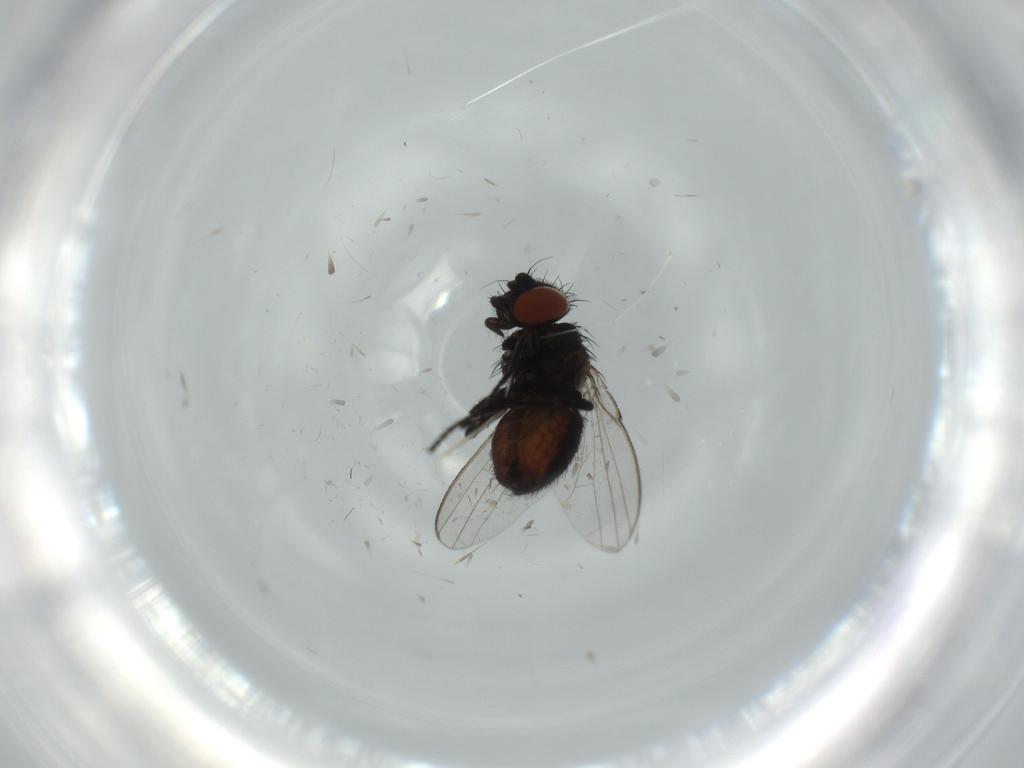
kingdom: Animalia
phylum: Arthropoda
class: Insecta
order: Diptera
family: Milichiidae
